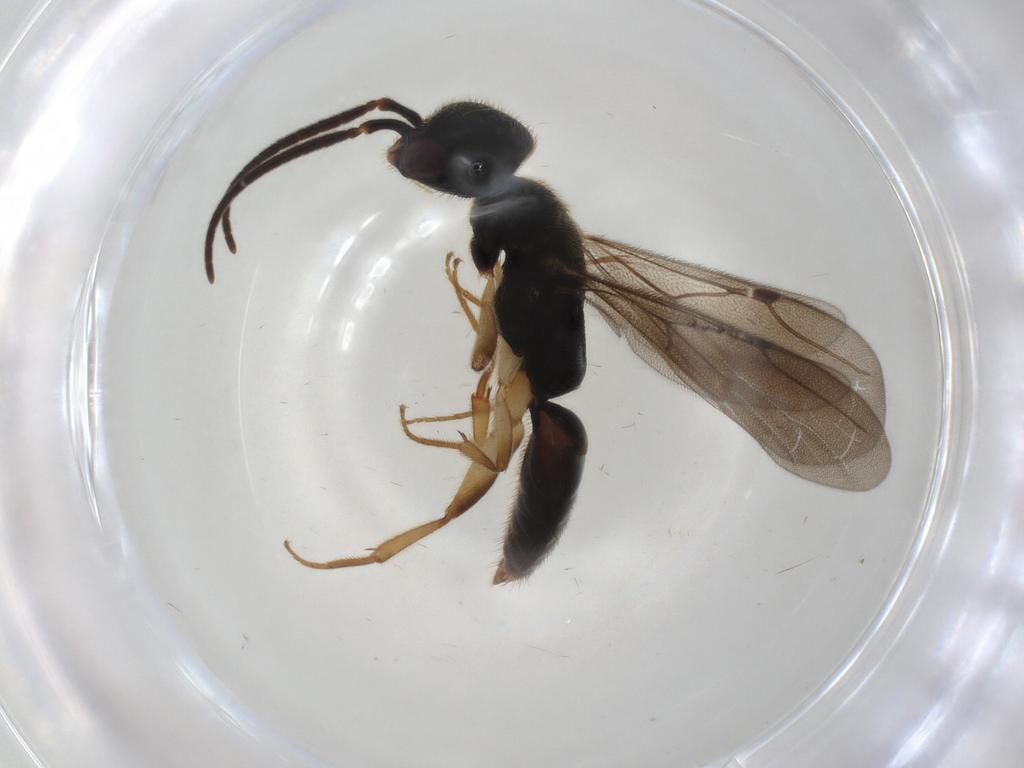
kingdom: Animalia
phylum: Arthropoda
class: Insecta
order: Hymenoptera
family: Bethylidae
